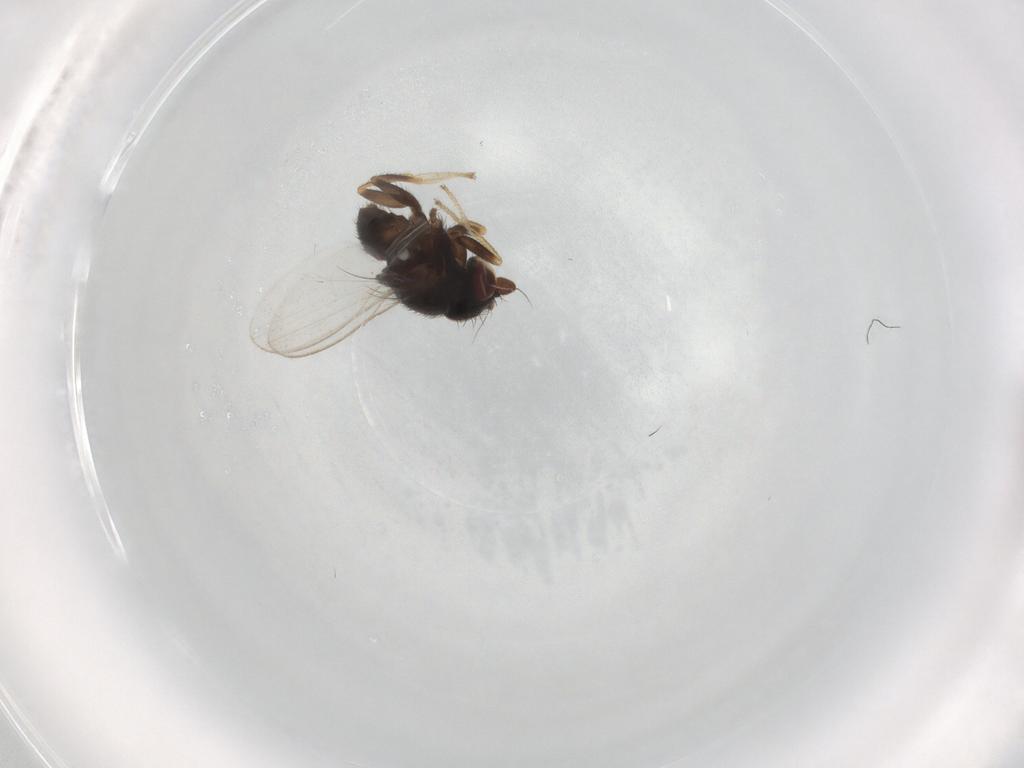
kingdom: Animalia
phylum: Arthropoda
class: Insecta
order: Diptera
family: Milichiidae
